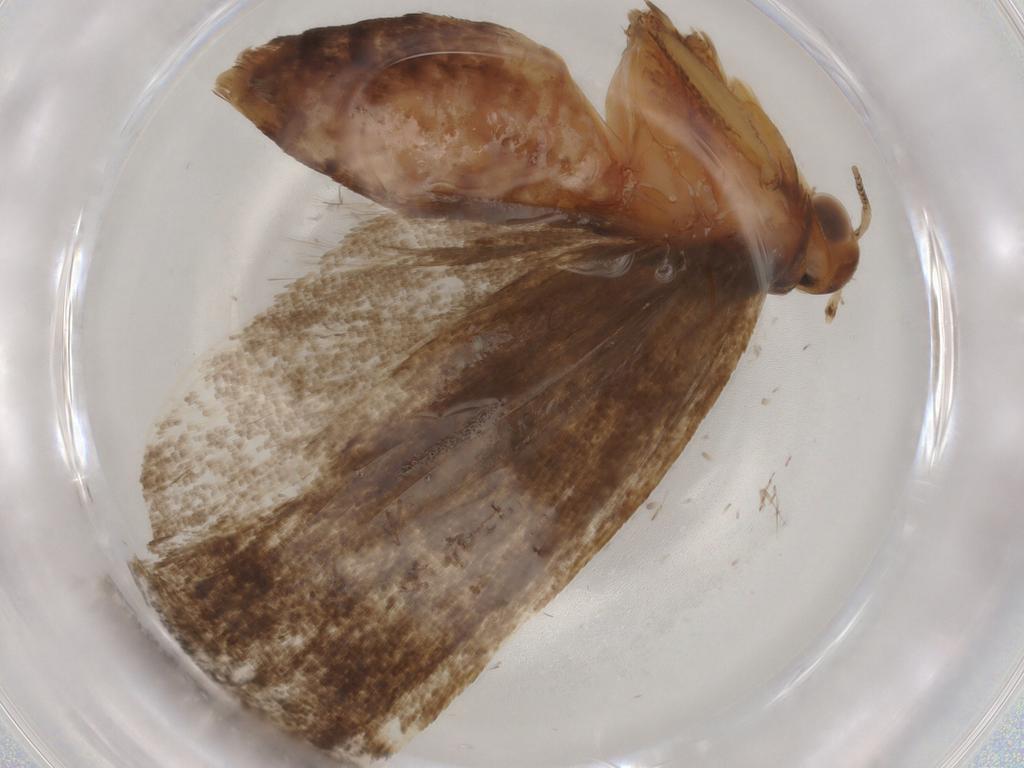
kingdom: Animalia
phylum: Arthropoda
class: Insecta
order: Lepidoptera
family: Lecithoceridae
